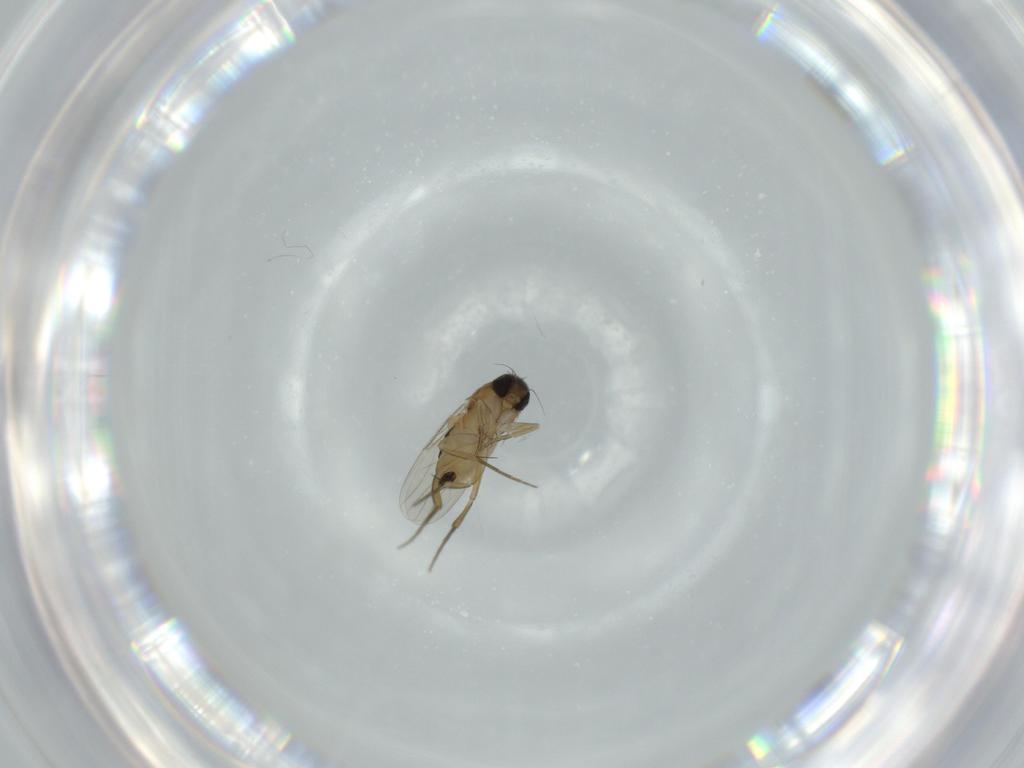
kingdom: Animalia
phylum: Arthropoda
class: Insecta
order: Diptera
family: Phoridae
